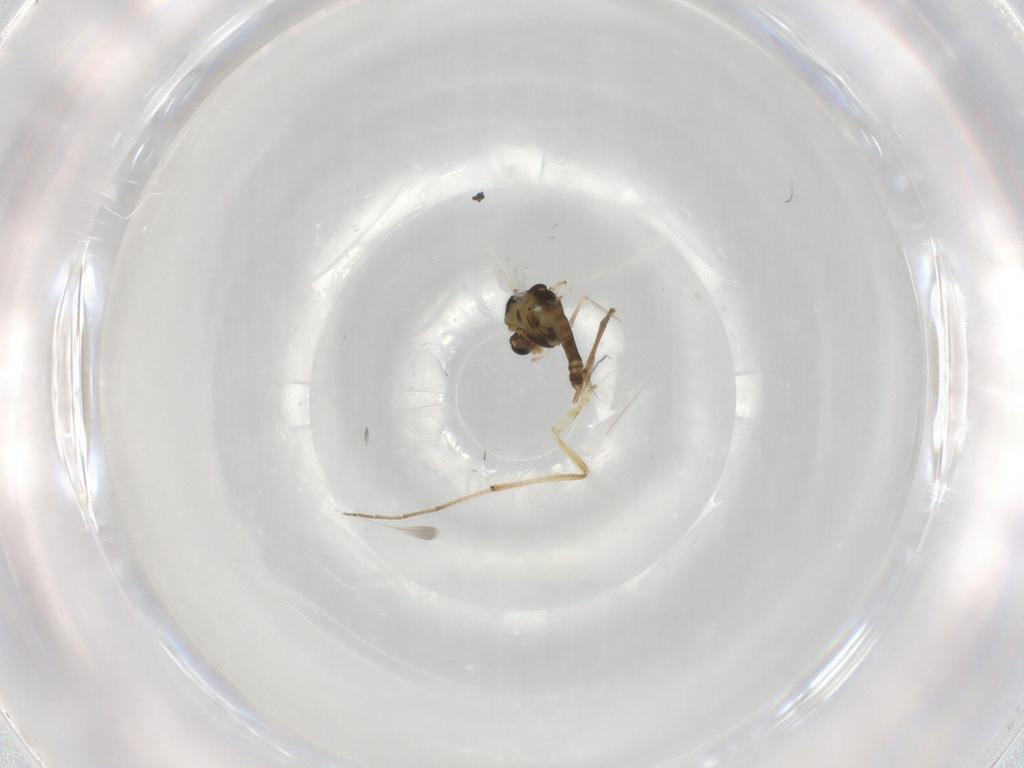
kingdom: Animalia
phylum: Arthropoda
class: Insecta
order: Diptera
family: Chironomidae
